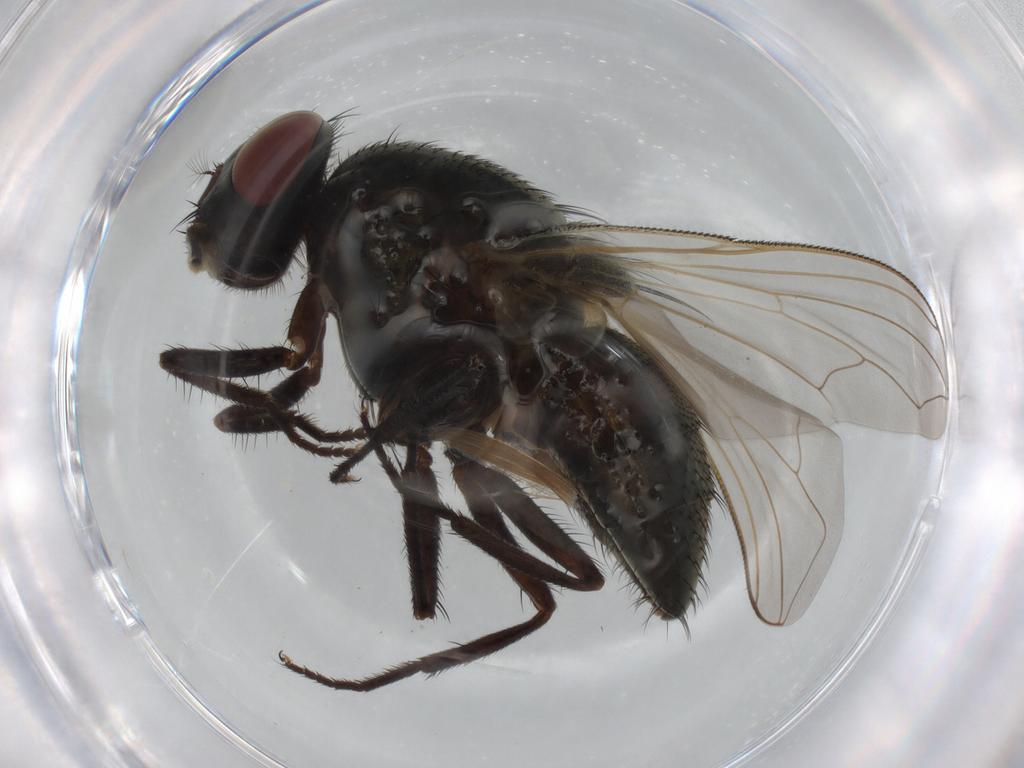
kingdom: Animalia
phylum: Arthropoda
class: Insecta
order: Diptera
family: Muscidae
